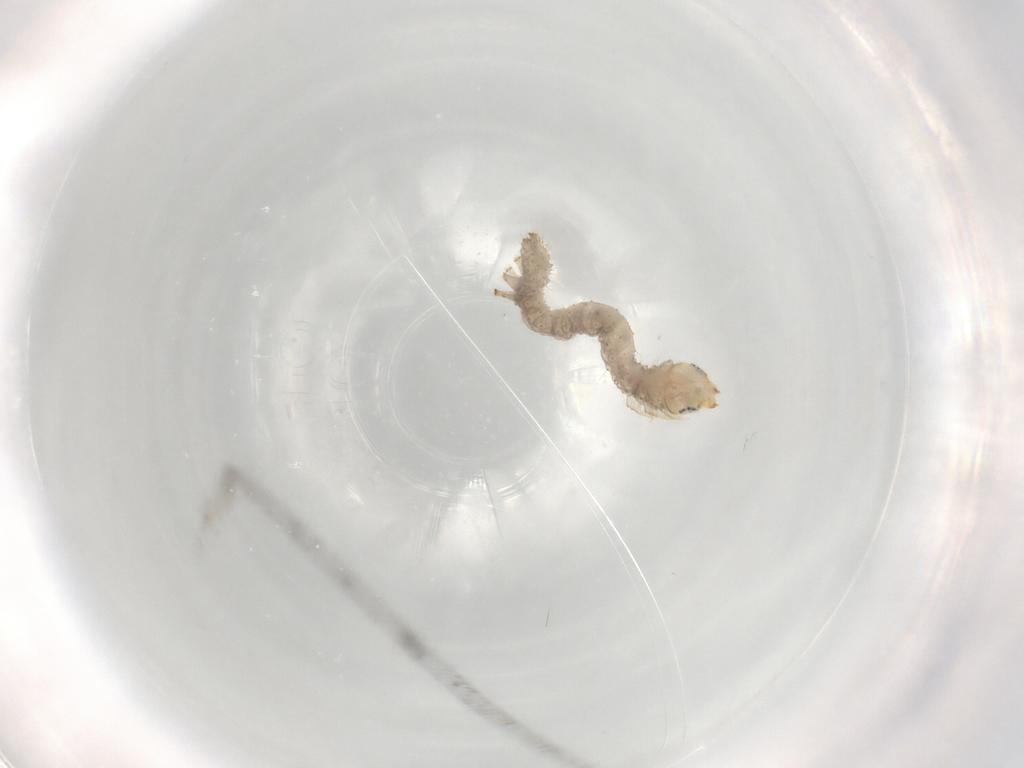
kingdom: Animalia
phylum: Arthropoda
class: Insecta
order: Lepidoptera
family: Erebidae
